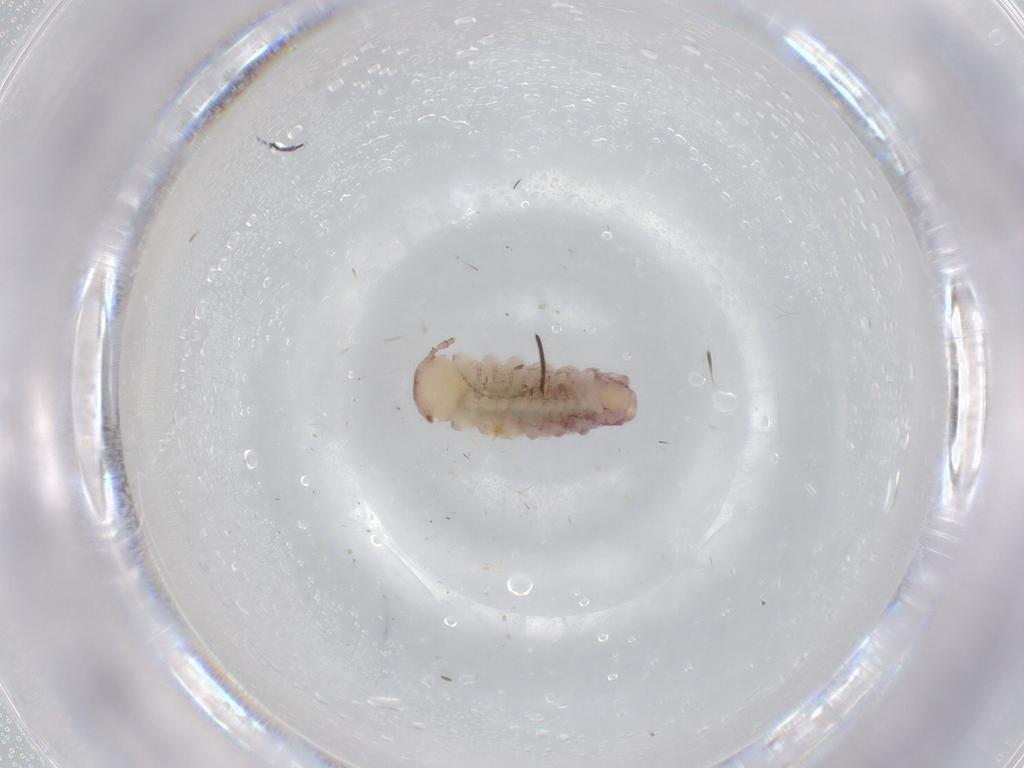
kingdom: Animalia
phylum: Arthropoda
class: Diplopoda
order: Polyxenida
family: Polyxenidae
